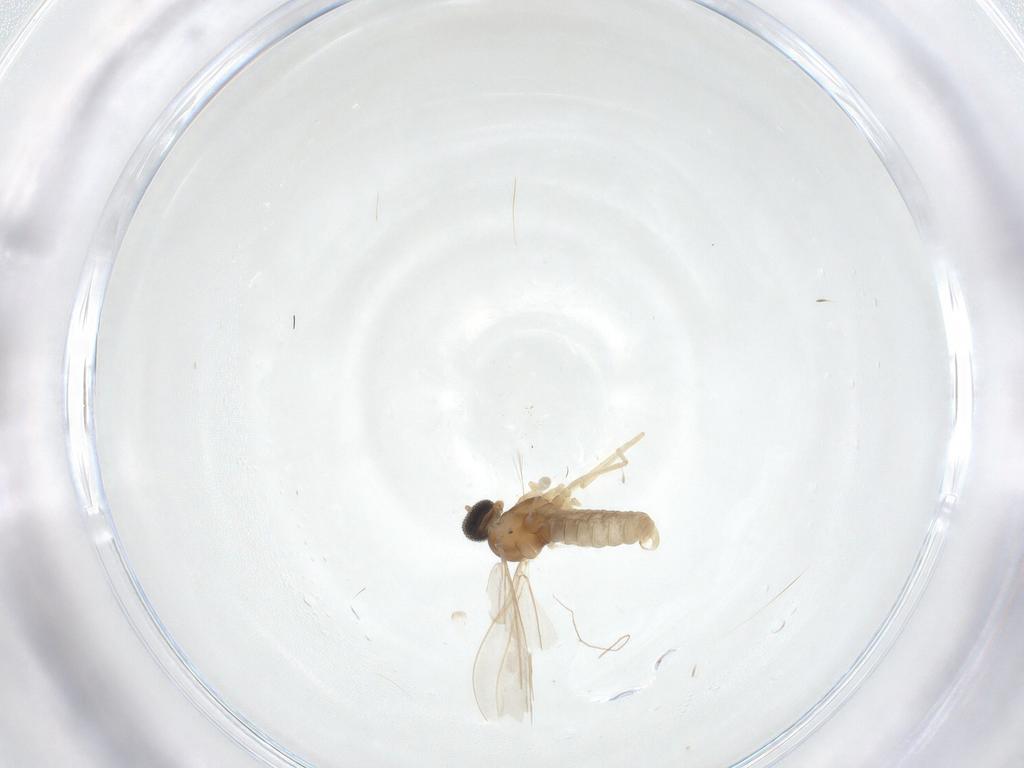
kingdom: Animalia
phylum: Arthropoda
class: Insecta
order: Diptera
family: Cecidomyiidae
